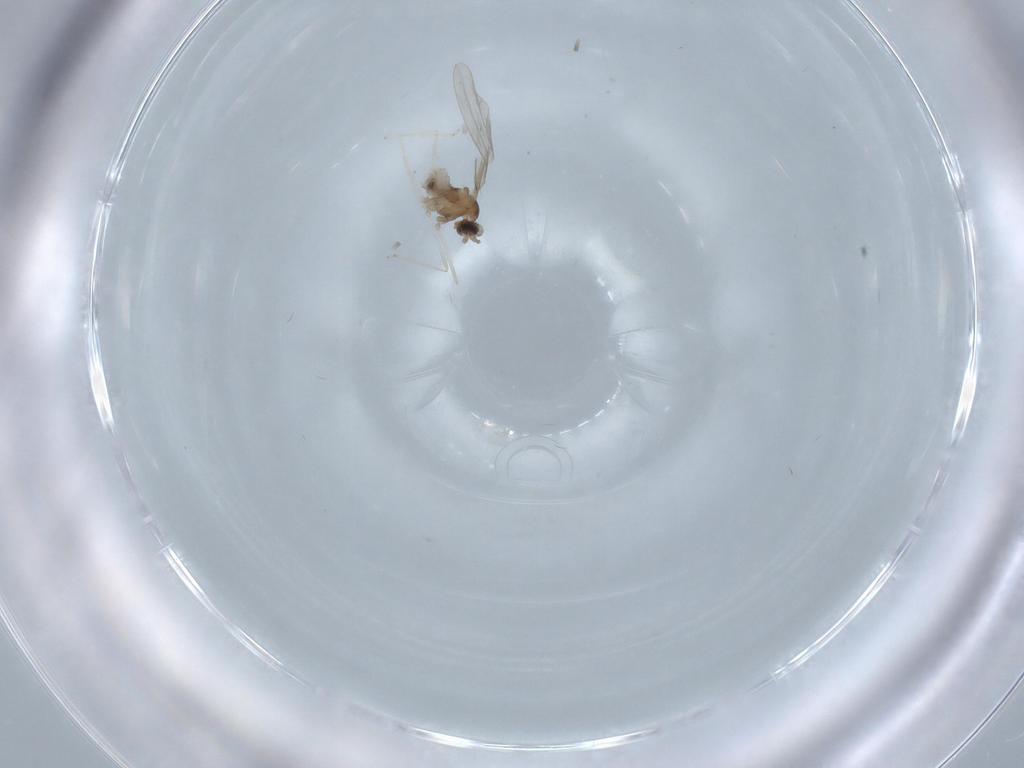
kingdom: Animalia
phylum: Arthropoda
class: Insecta
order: Diptera
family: Cecidomyiidae
